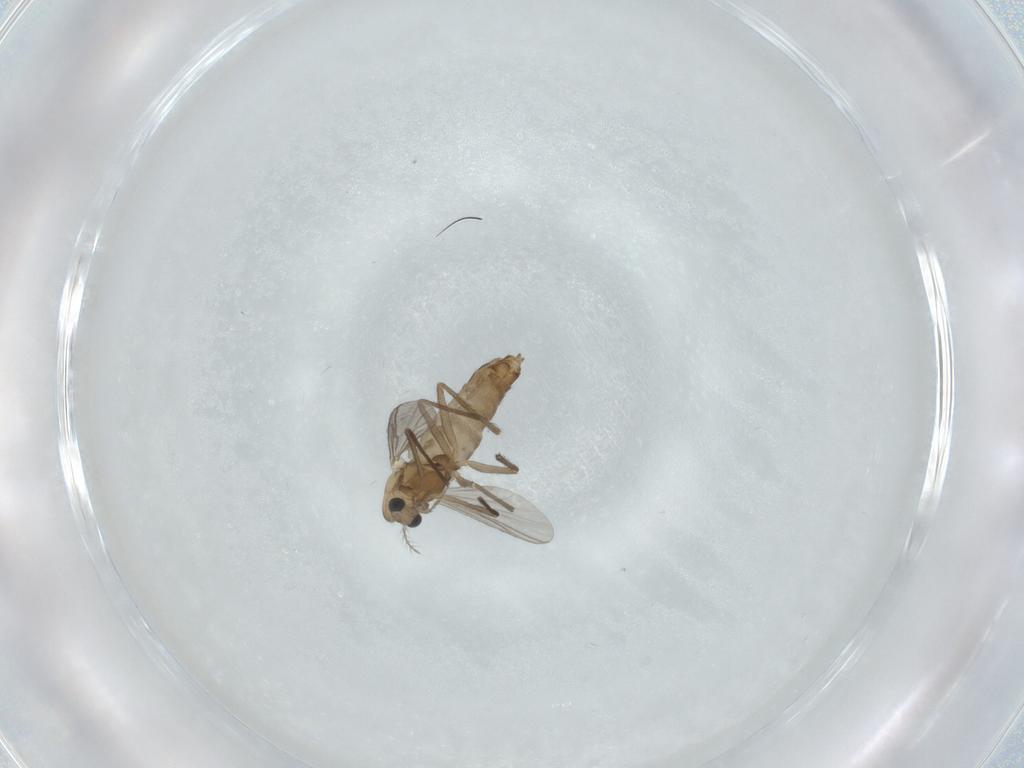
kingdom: Animalia
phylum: Arthropoda
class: Insecta
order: Diptera
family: Chironomidae
